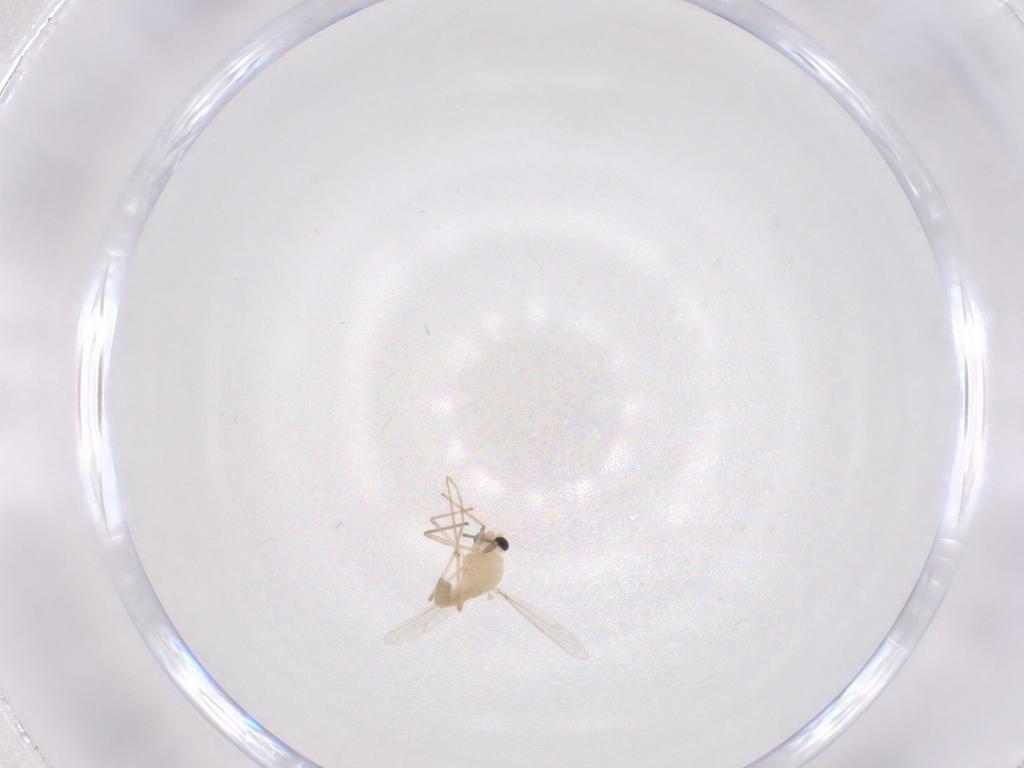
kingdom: Animalia
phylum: Arthropoda
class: Insecta
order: Diptera
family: Chironomidae
